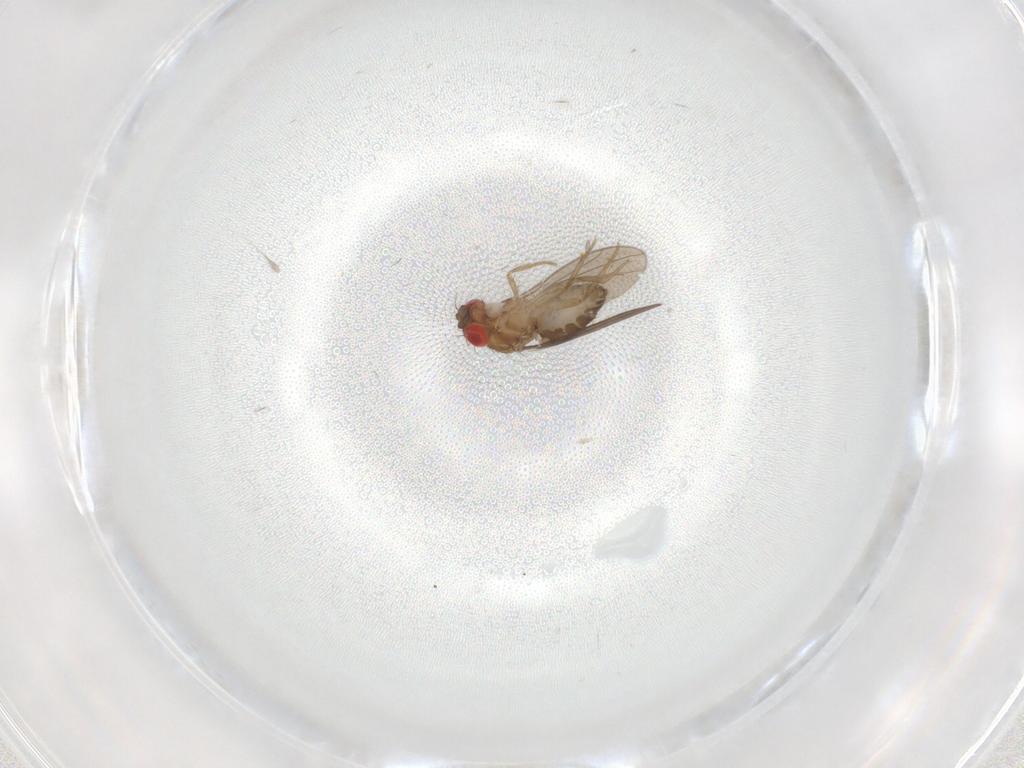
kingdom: Animalia
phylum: Arthropoda
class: Insecta
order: Diptera
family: Drosophilidae
